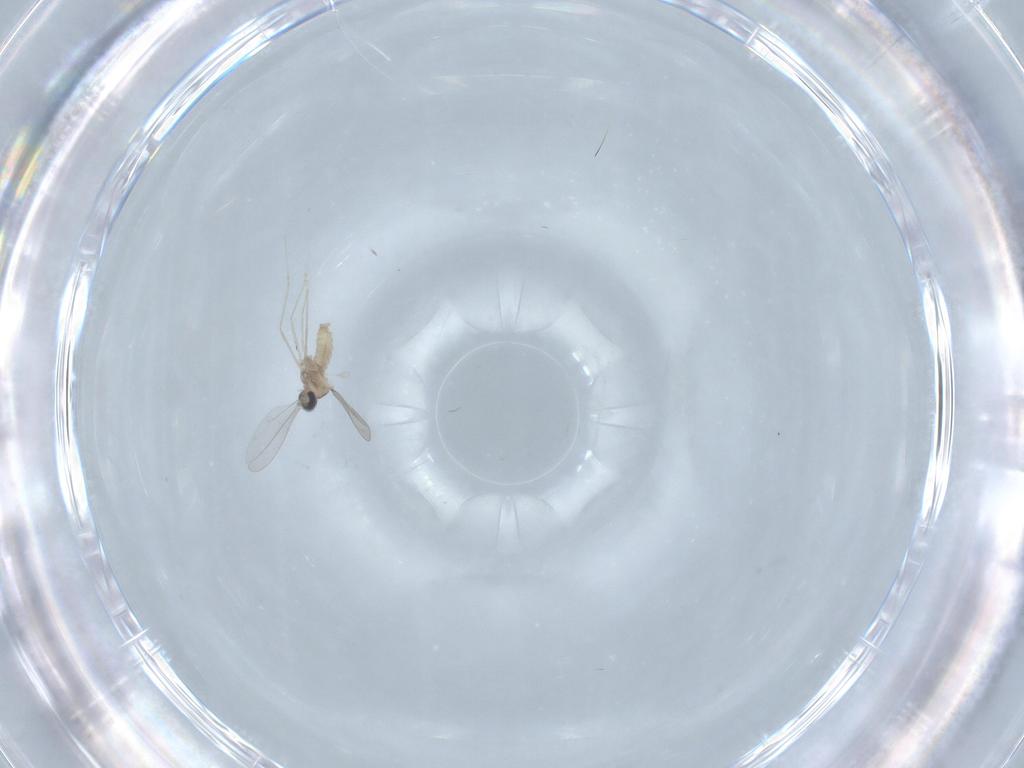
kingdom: Animalia
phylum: Arthropoda
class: Insecta
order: Diptera
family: Cecidomyiidae
